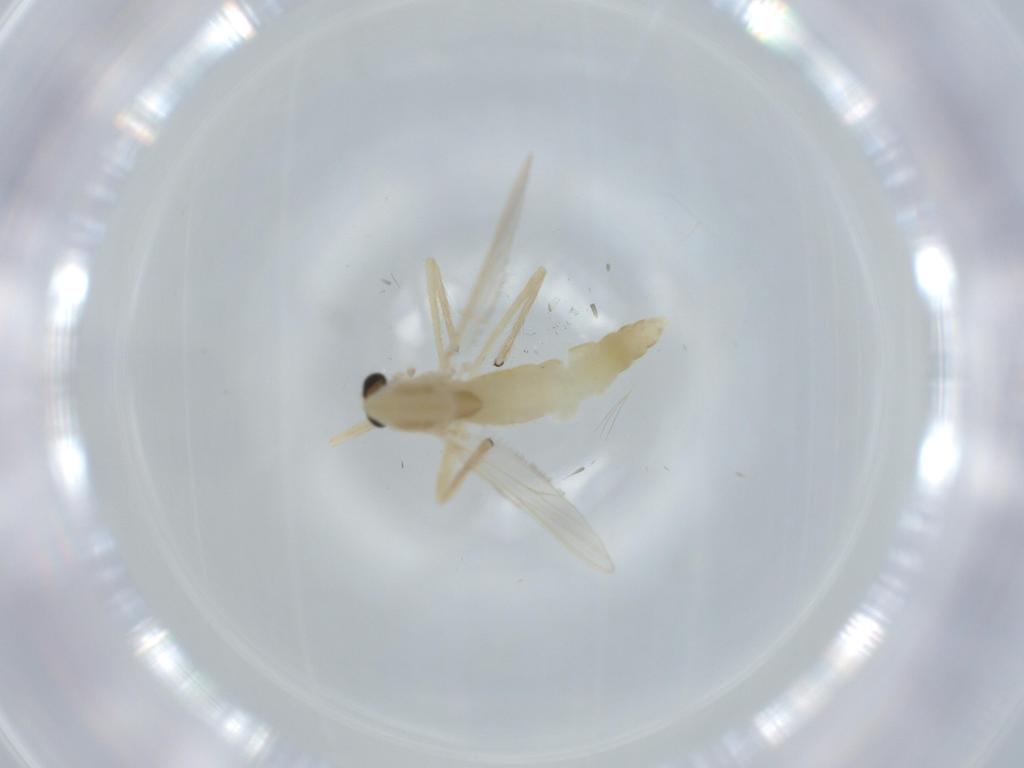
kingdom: Animalia
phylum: Arthropoda
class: Insecta
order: Diptera
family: Chironomidae
